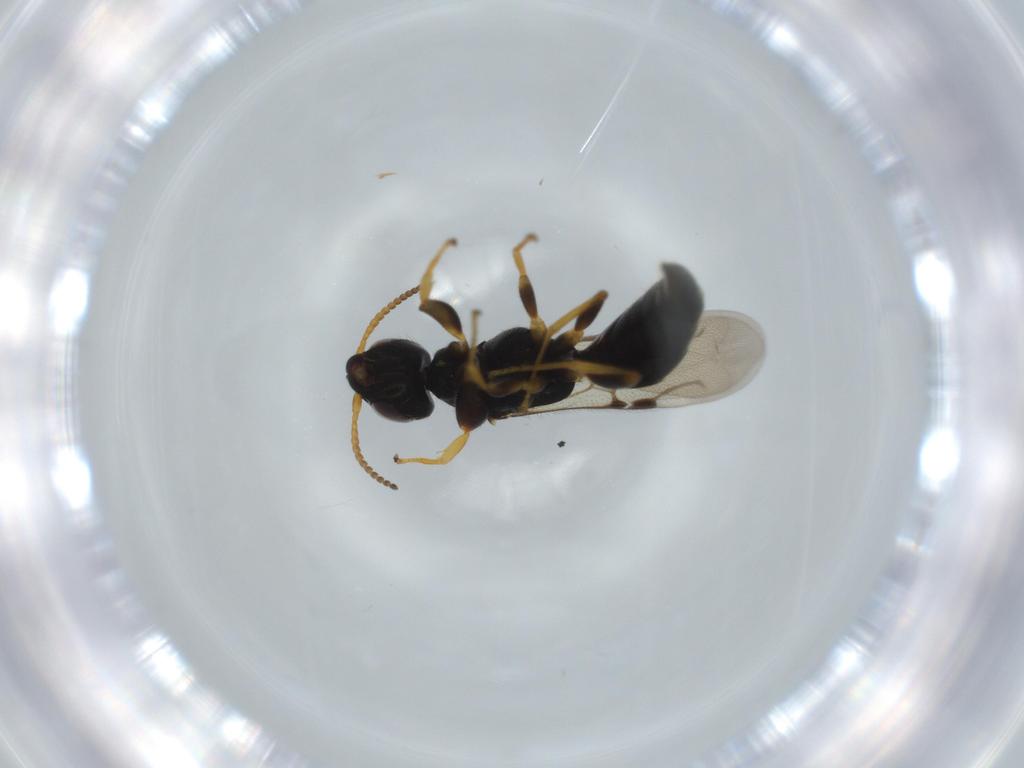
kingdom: Animalia
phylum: Arthropoda
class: Insecta
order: Hymenoptera
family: Bethylidae
